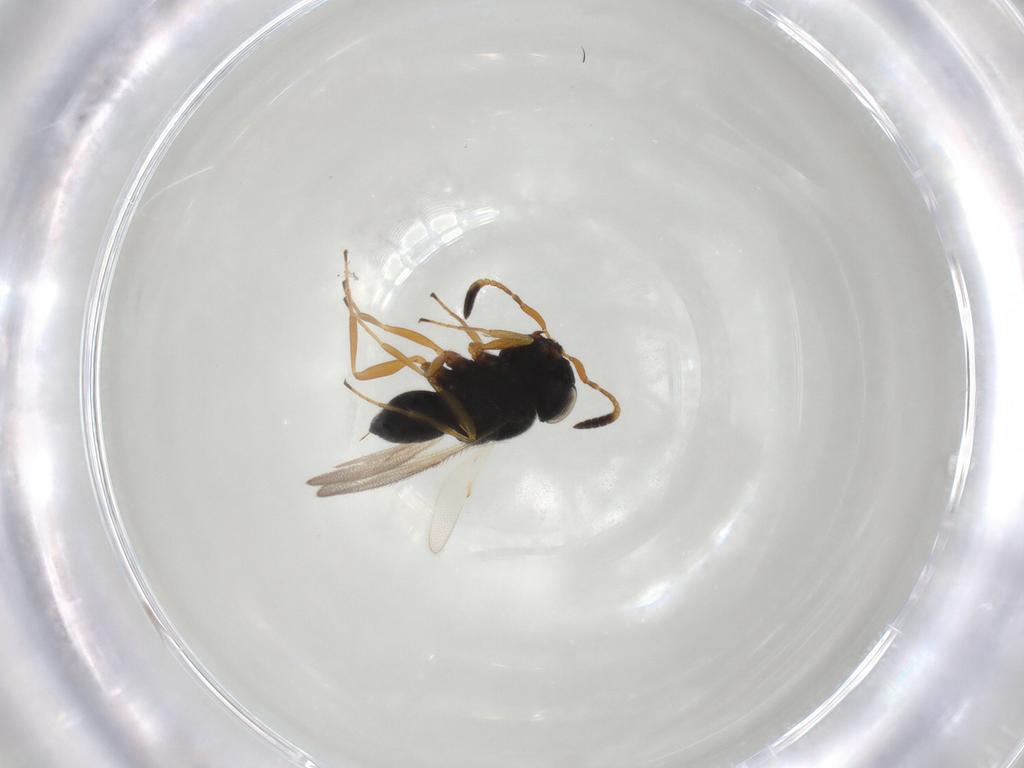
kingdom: Animalia
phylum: Arthropoda
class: Insecta
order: Hymenoptera
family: Scelionidae
